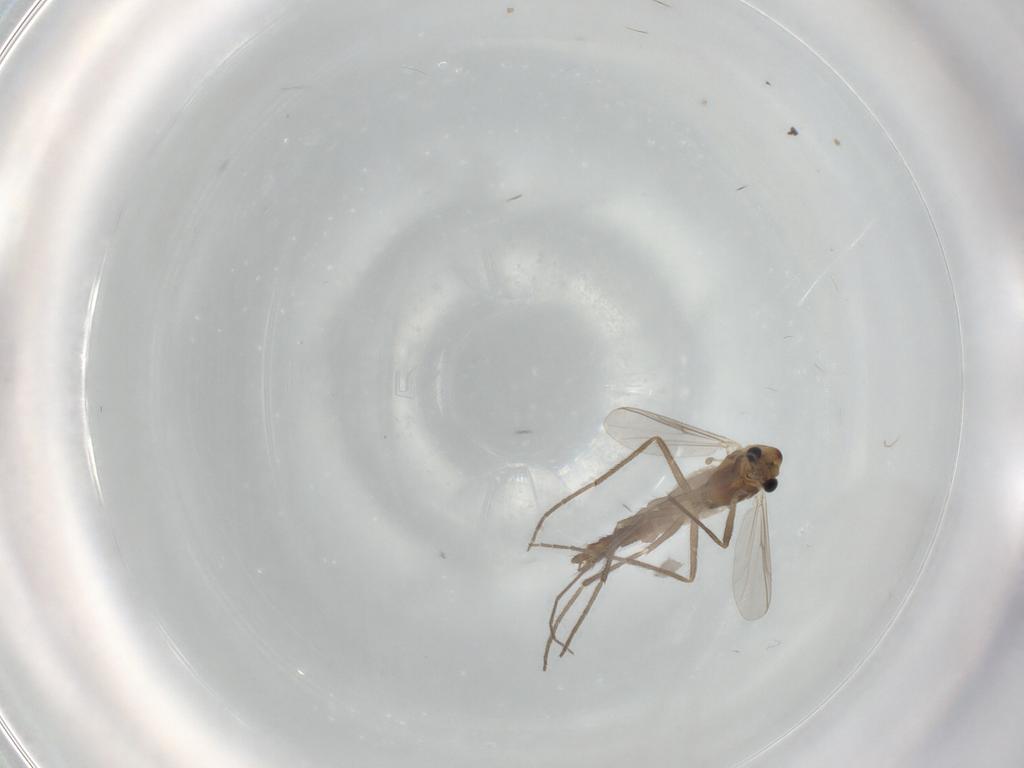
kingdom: Animalia
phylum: Arthropoda
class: Insecta
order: Diptera
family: Chironomidae
